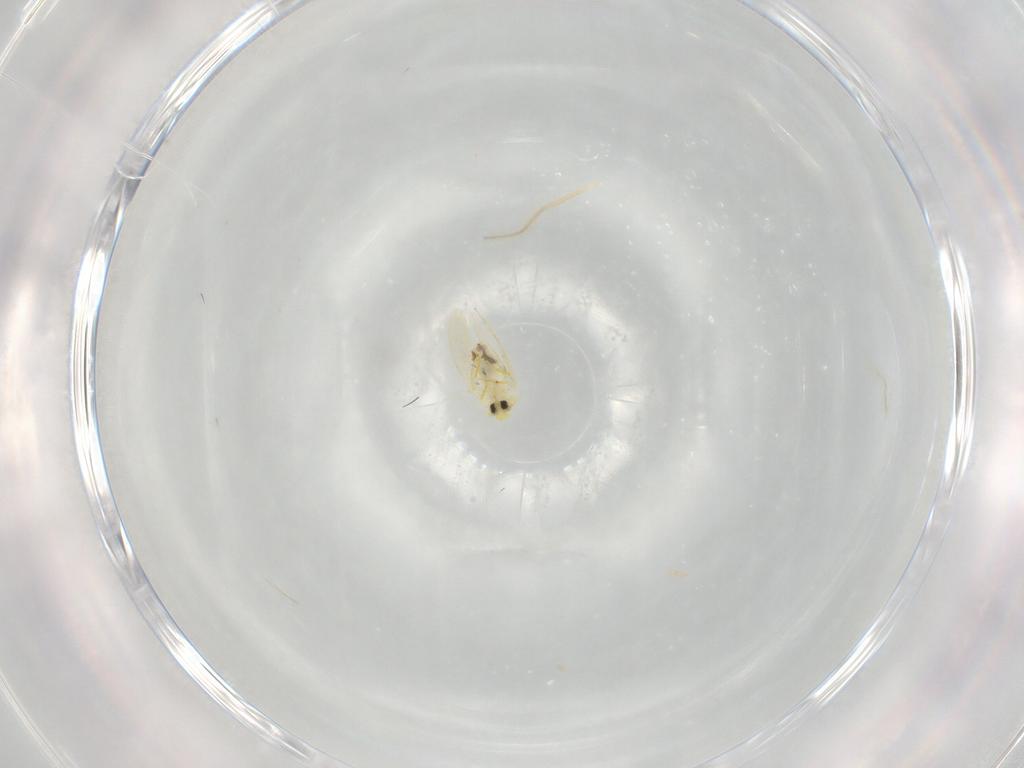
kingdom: Animalia
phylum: Arthropoda
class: Insecta
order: Hemiptera
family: Aleyrodidae
